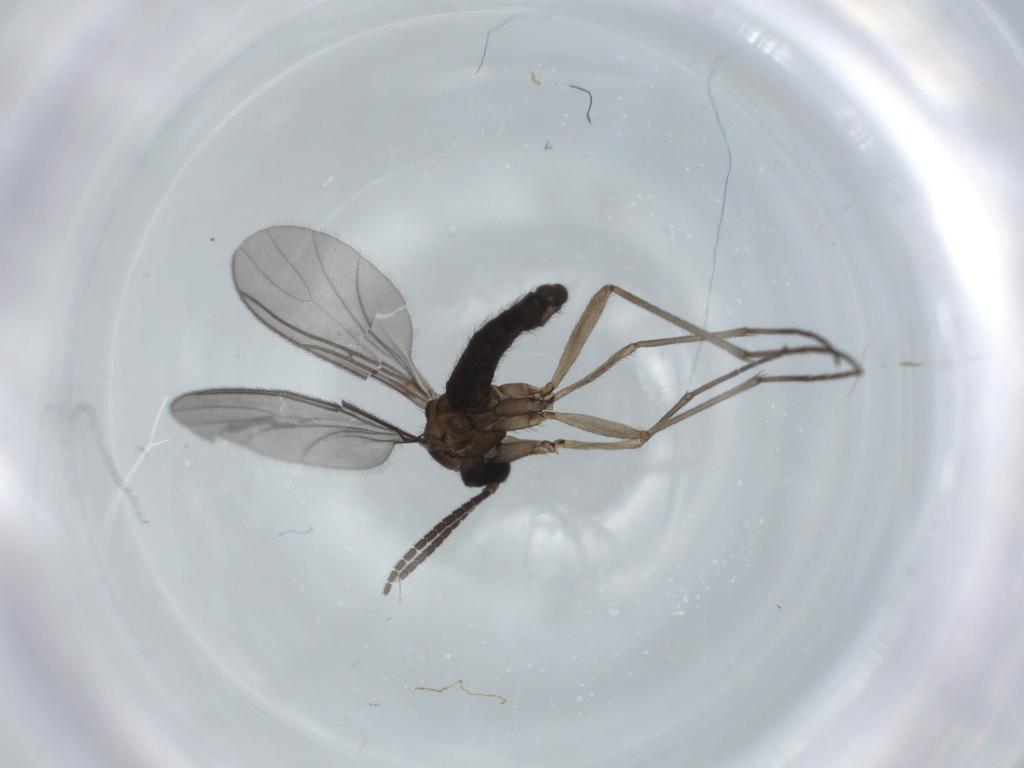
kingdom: Animalia
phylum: Arthropoda
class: Insecta
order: Diptera
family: Sciaridae
